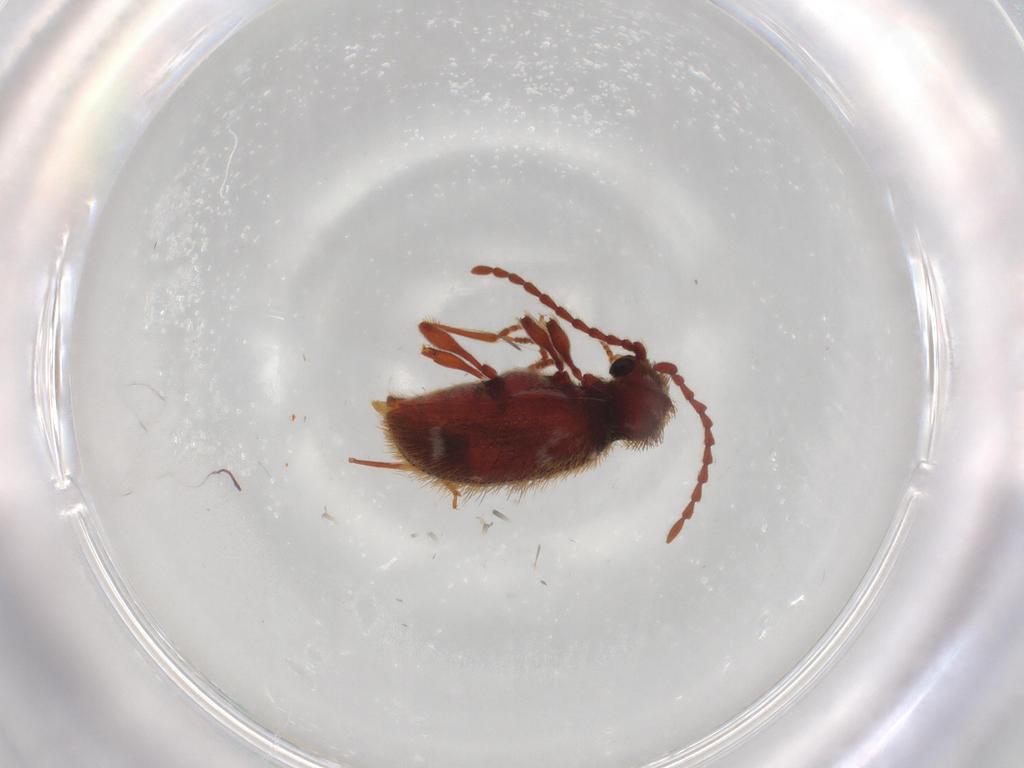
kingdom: Animalia
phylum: Arthropoda
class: Insecta
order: Coleoptera
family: Ptinidae
